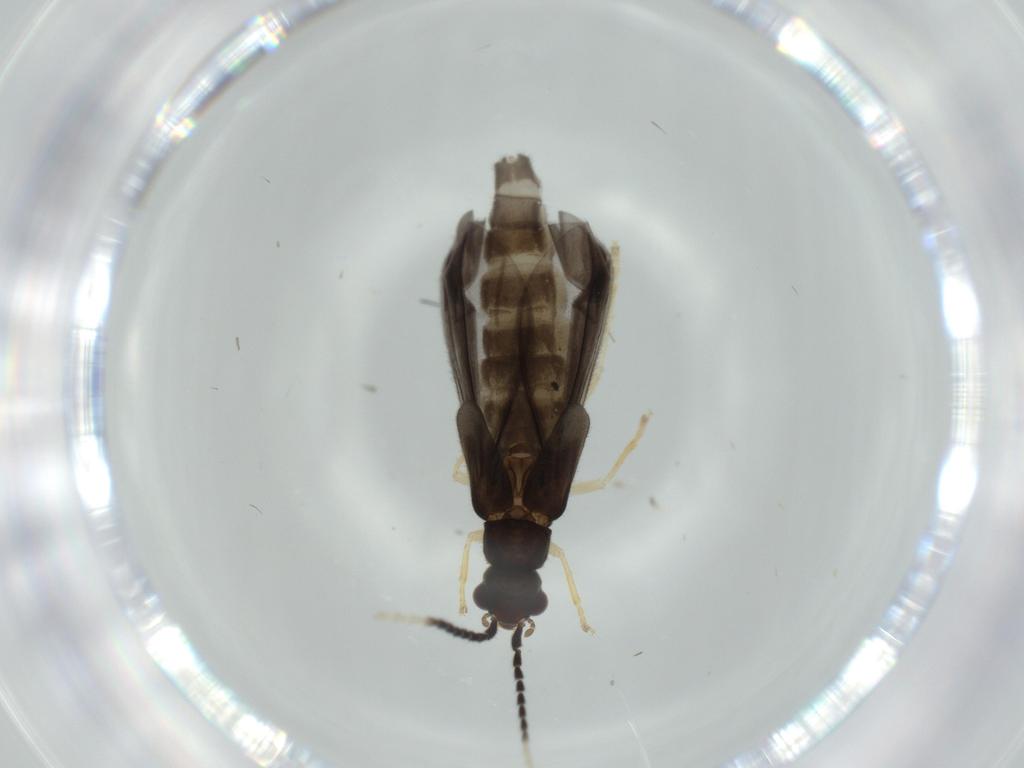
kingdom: Animalia
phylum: Arthropoda
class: Insecta
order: Coleoptera
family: Cantharidae
